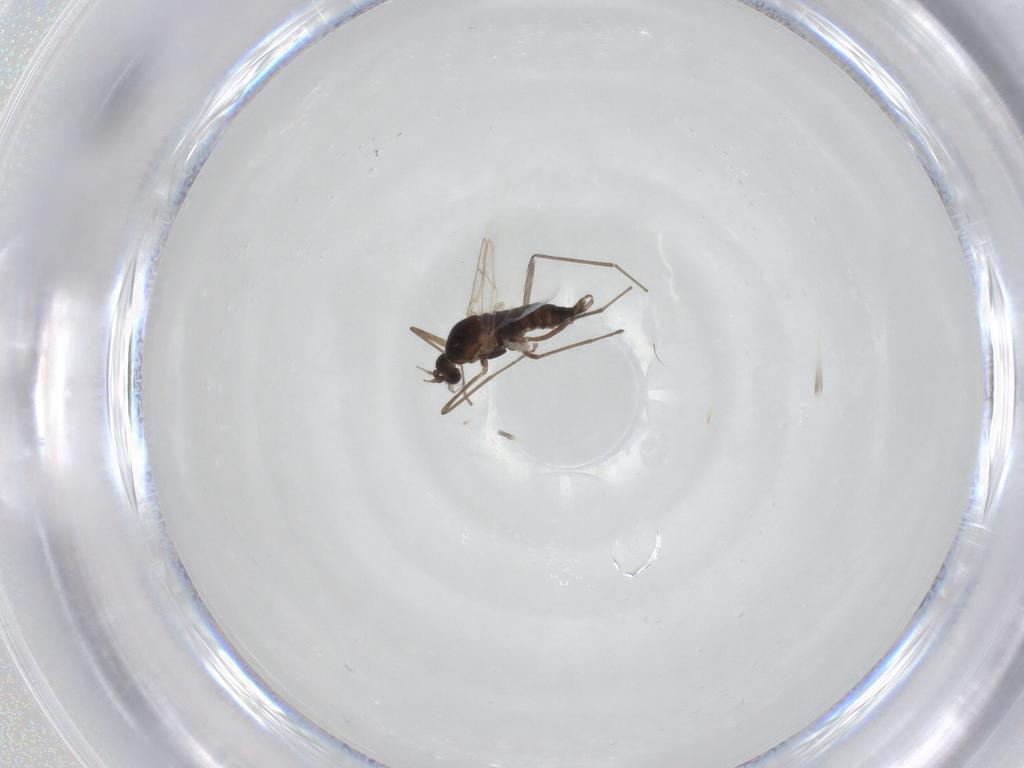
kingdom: Animalia
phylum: Arthropoda
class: Insecta
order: Diptera
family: Cecidomyiidae
